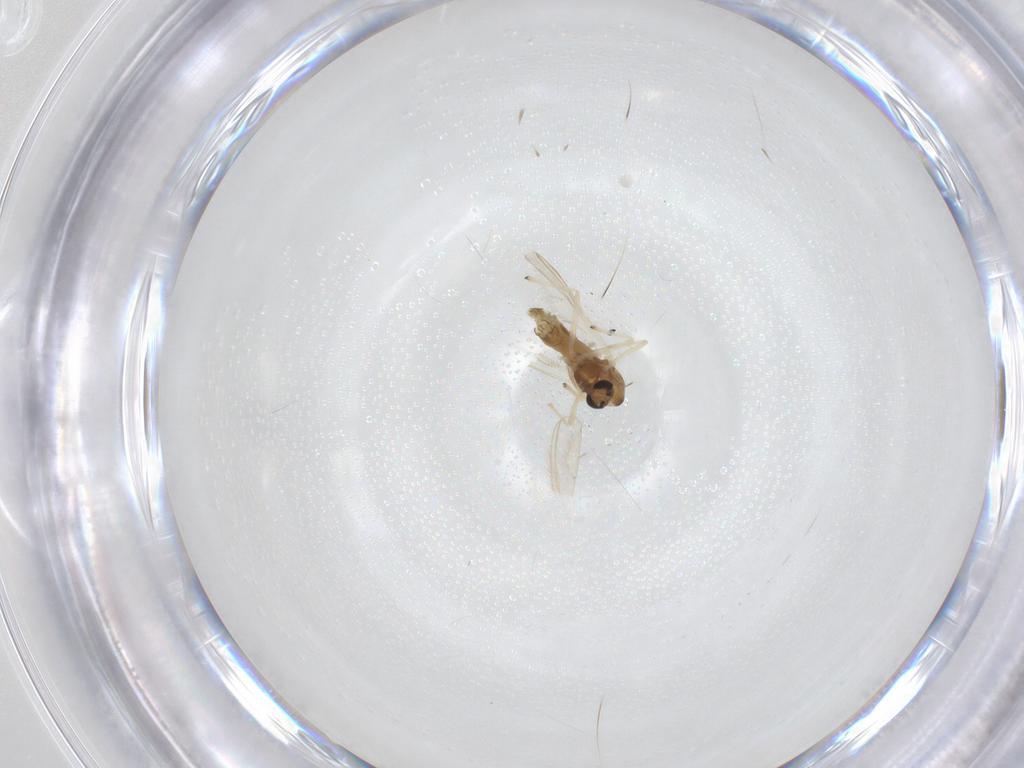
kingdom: Animalia
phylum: Arthropoda
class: Insecta
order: Diptera
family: Chironomidae
